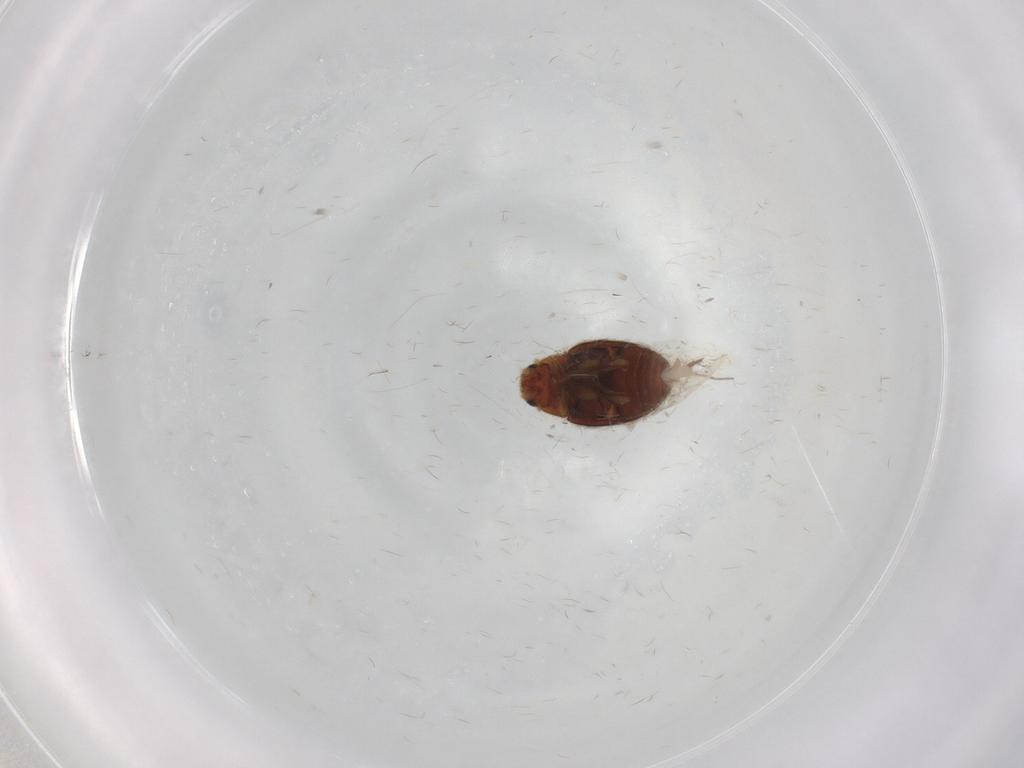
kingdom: Animalia
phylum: Arthropoda
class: Insecta
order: Coleoptera
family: Coccinellidae
